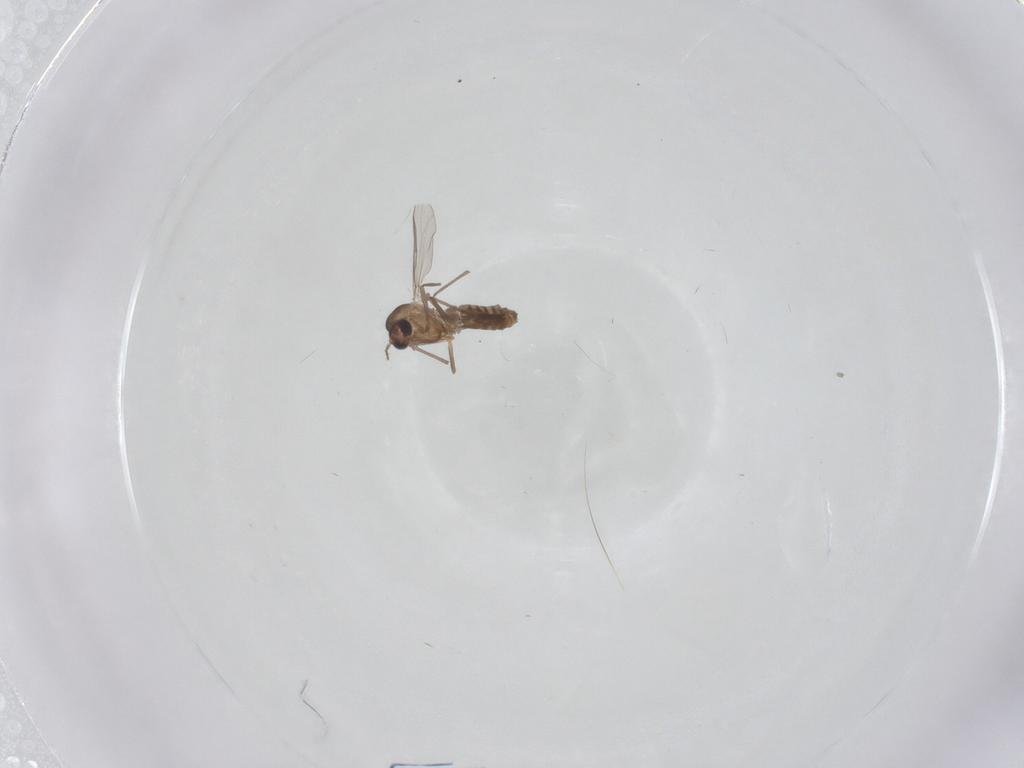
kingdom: Animalia
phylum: Arthropoda
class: Insecta
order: Diptera
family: Chironomidae
